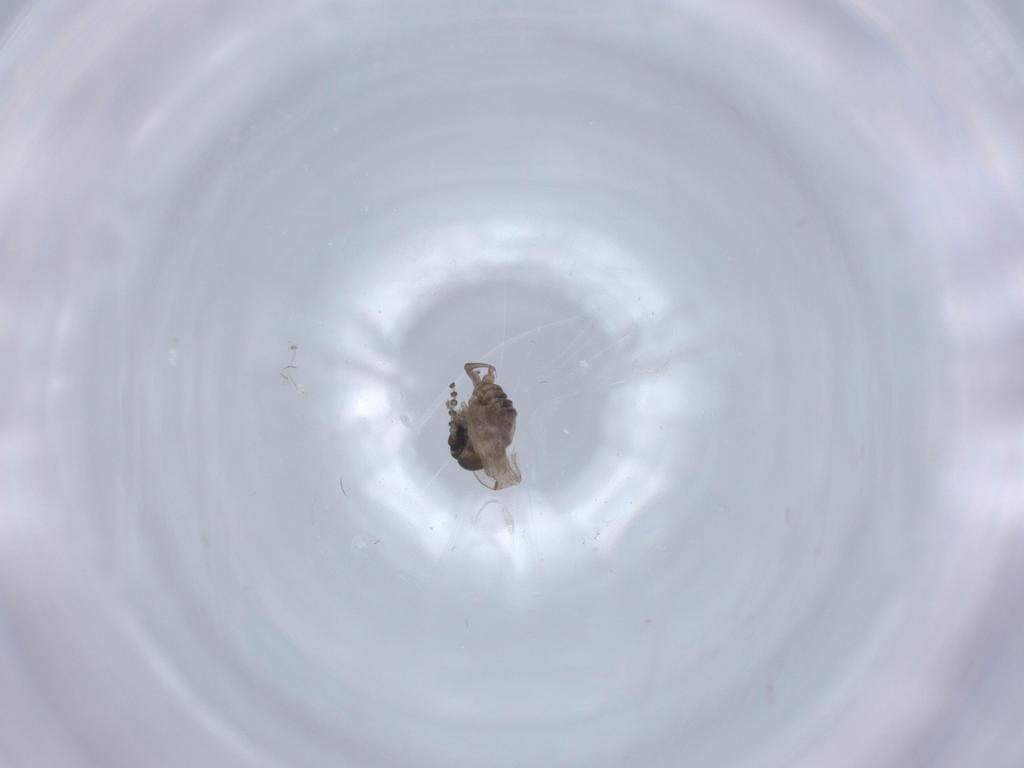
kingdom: Animalia
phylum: Arthropoda
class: Insecta
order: Diptera
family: Psychodidae
